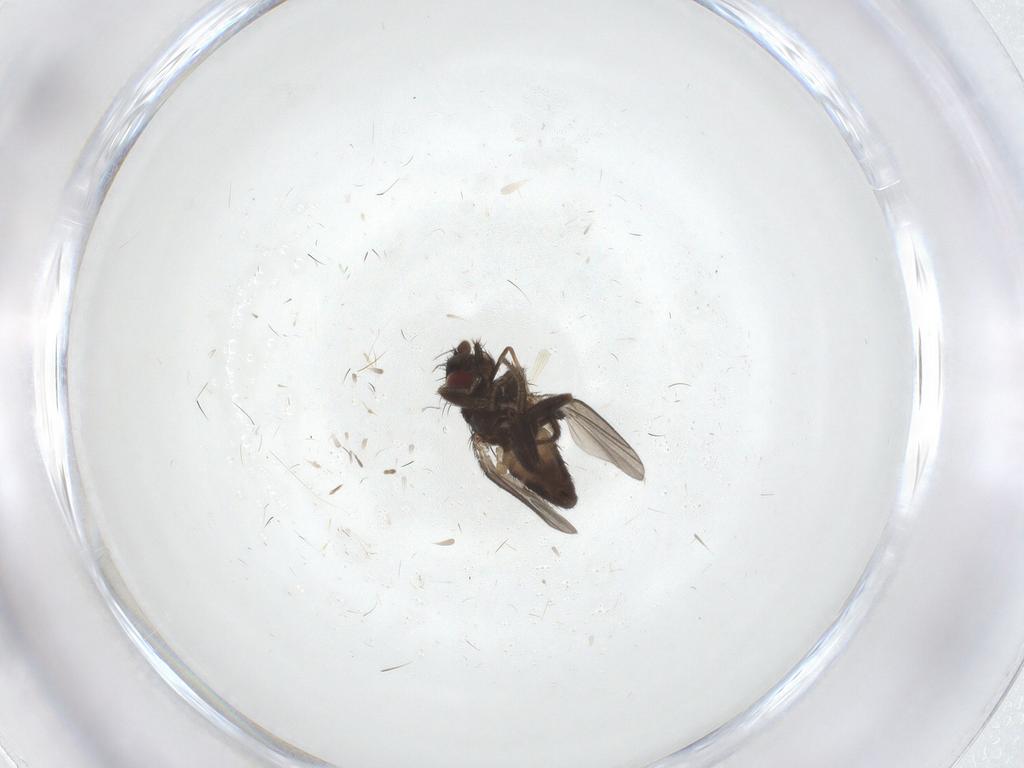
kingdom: Animalia
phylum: Arthropoda
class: Insecta
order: Diptera
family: Milichiidae
